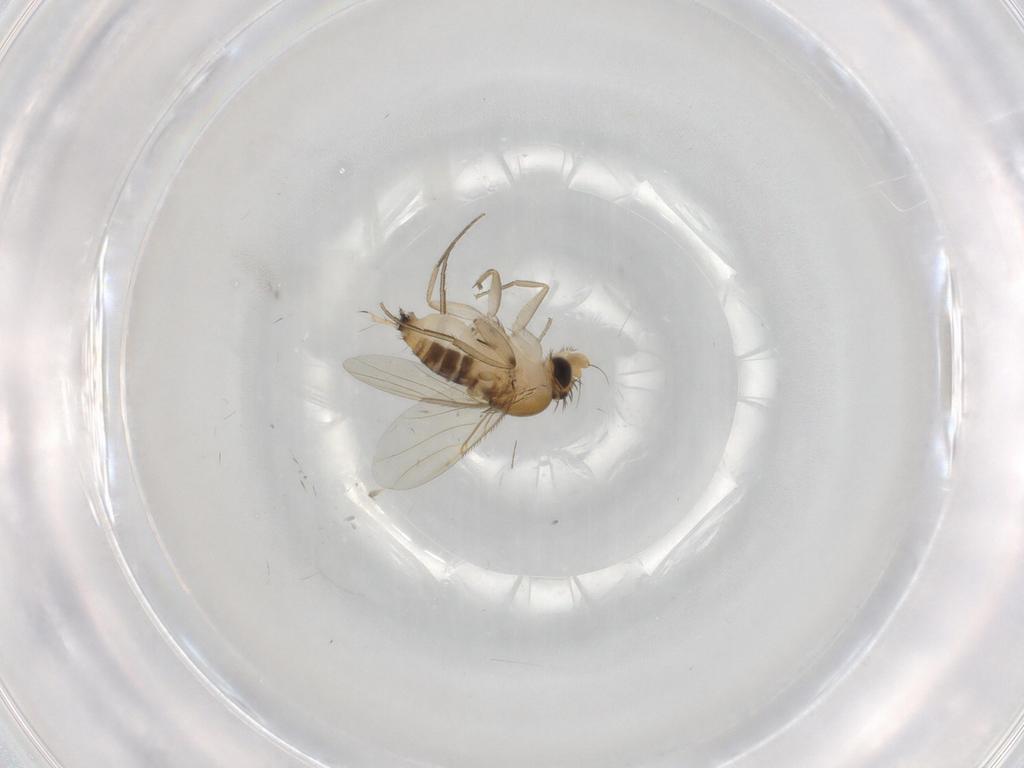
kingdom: Animalia
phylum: Arthropoda
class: Insecta
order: Diptera
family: Phoridae
